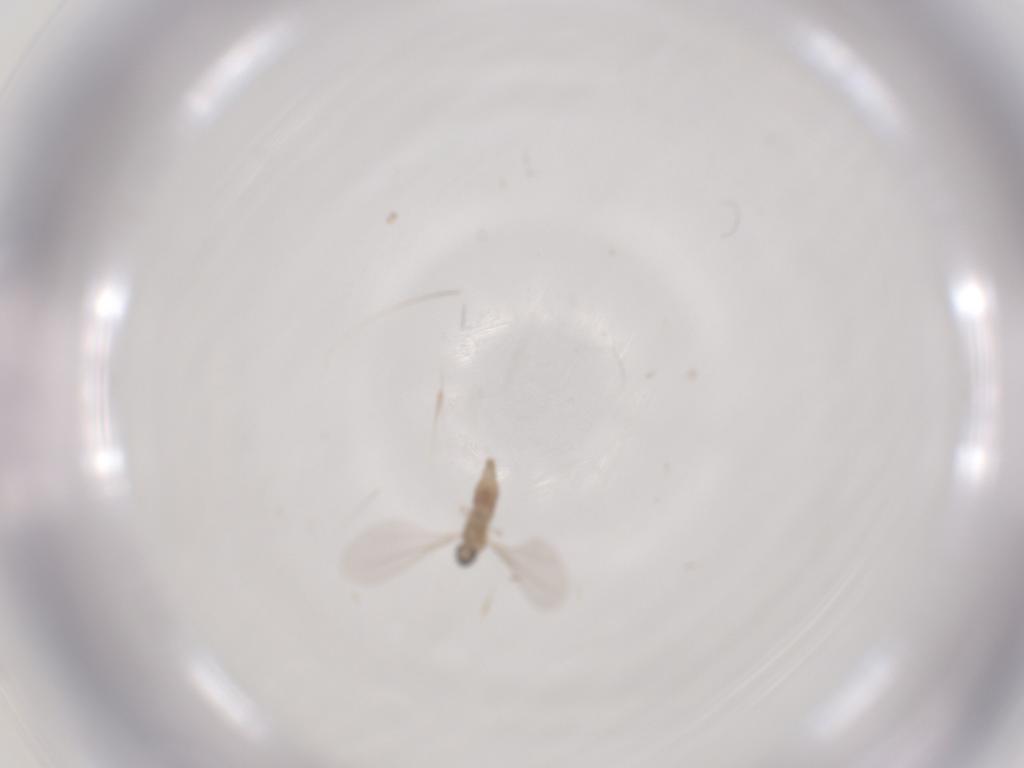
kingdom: Animalia
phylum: Arthropoda
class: Insecta
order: Diptera
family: Cecidomyiidae
